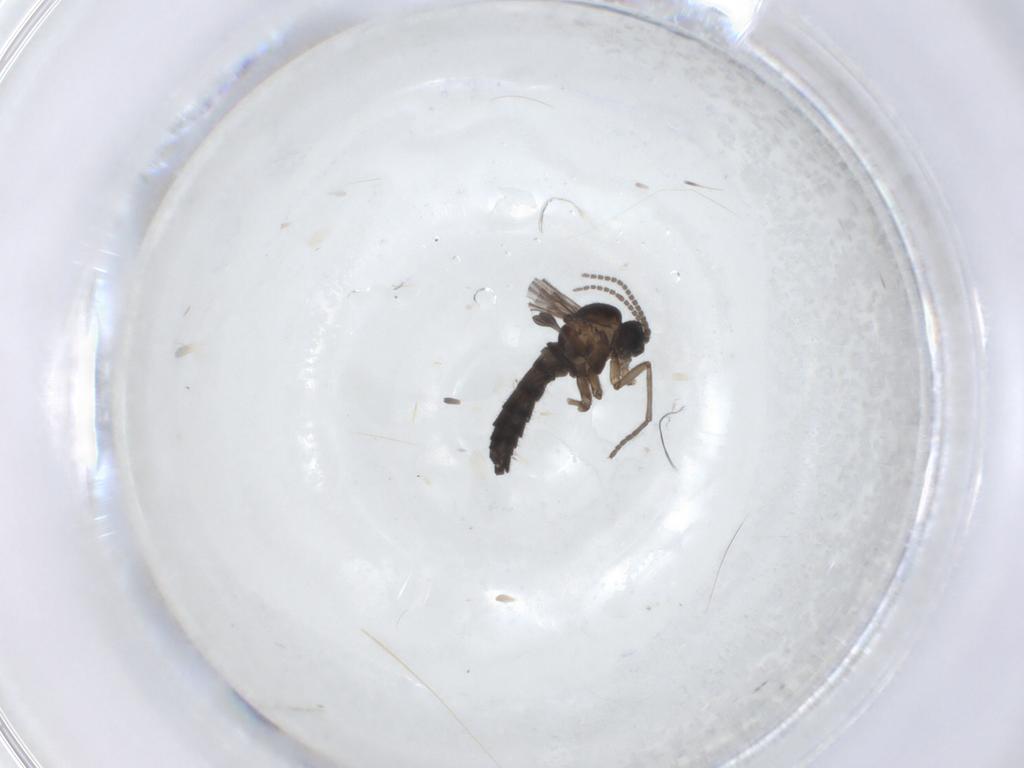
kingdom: Animalia
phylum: Arthropoda
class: Insecta
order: Diptera
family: Sciaridae
